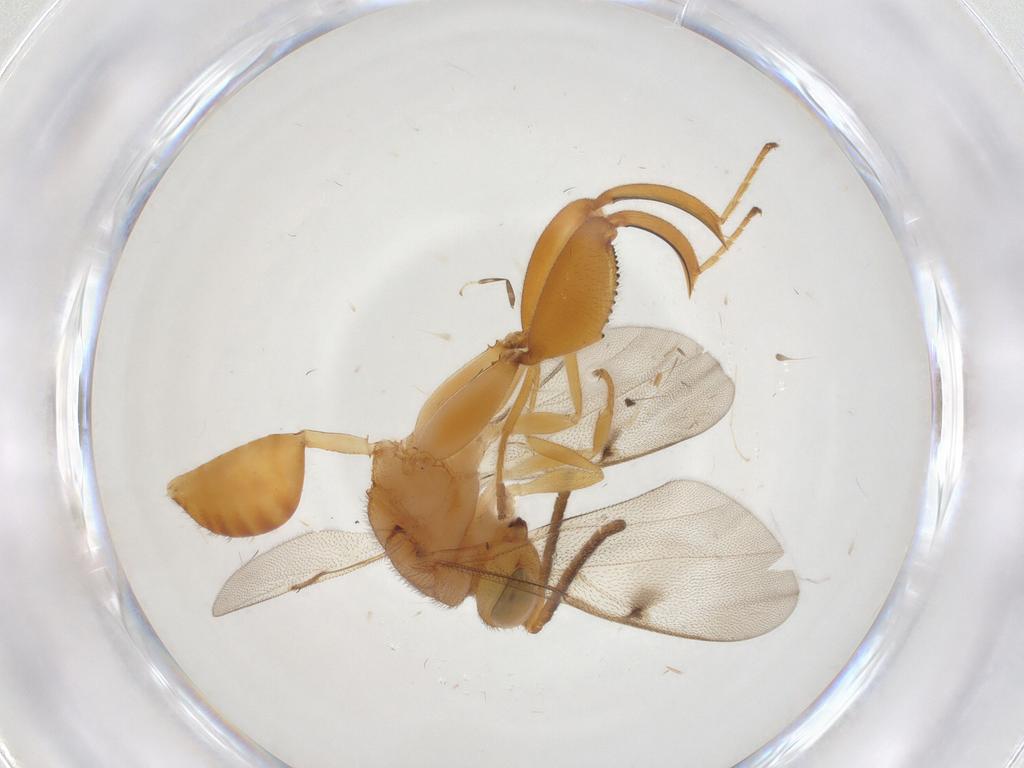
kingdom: Animalia
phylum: Arthropoda
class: Insecta
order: Hymenoptera
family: Chalcididae
